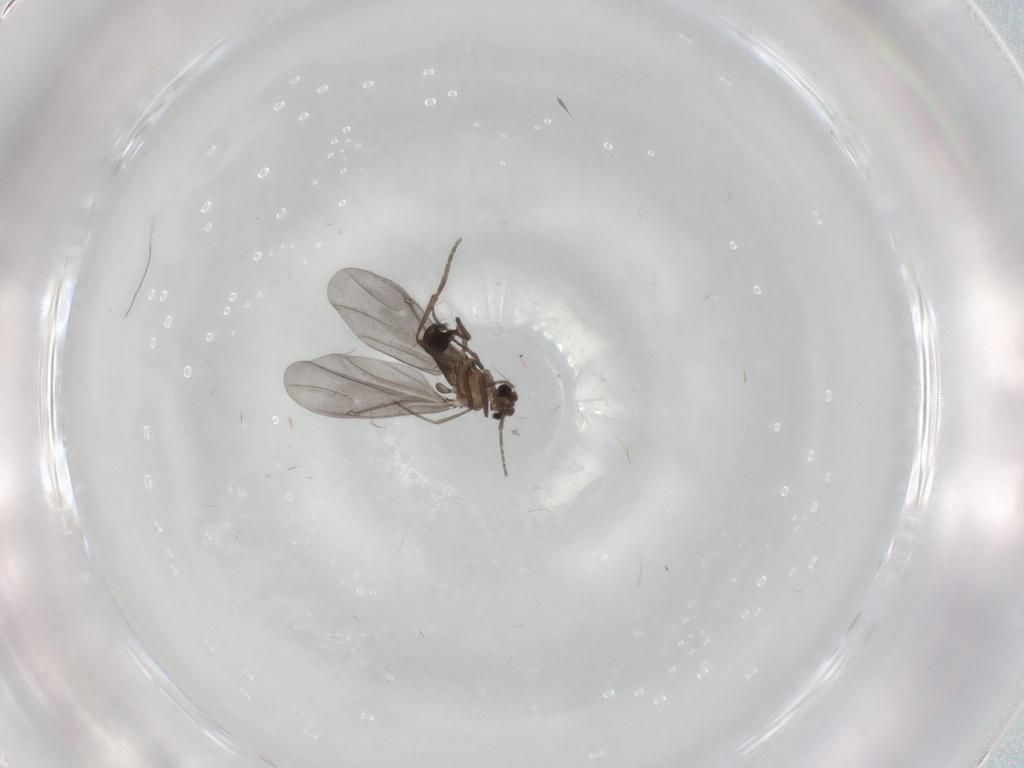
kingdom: Animalia
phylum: Arthropoda
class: Insecta
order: Diptera
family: Phoridae
